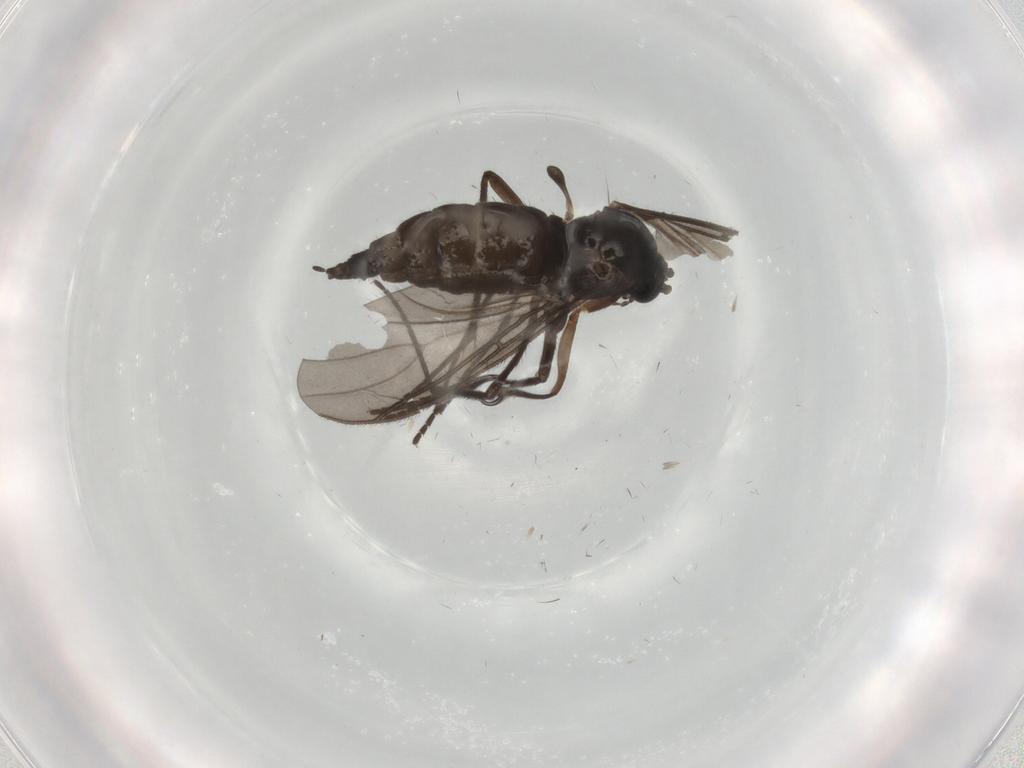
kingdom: Animalia
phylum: Arthropoda
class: Insecta
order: Diptera
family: Sciaridae
